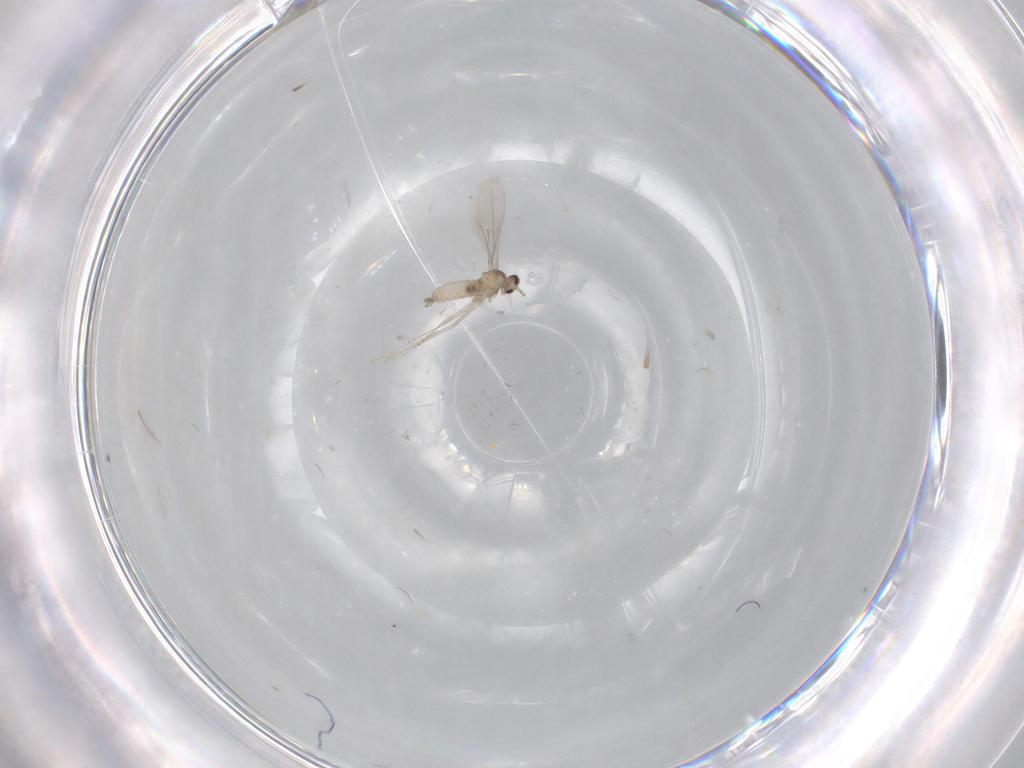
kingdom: Animalia
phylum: Arthropoda
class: Insecta
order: Diptera
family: Cecidomyiidae
